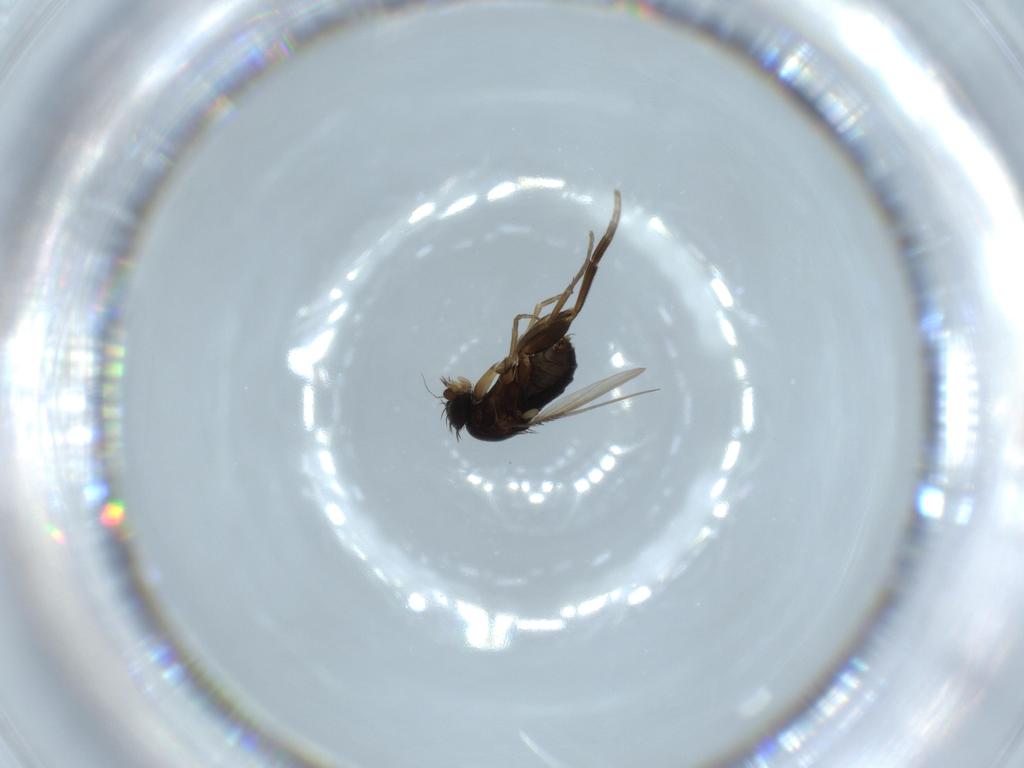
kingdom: Animalia
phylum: Arthropoda
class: Insecta
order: Diptera
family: Phoridae
